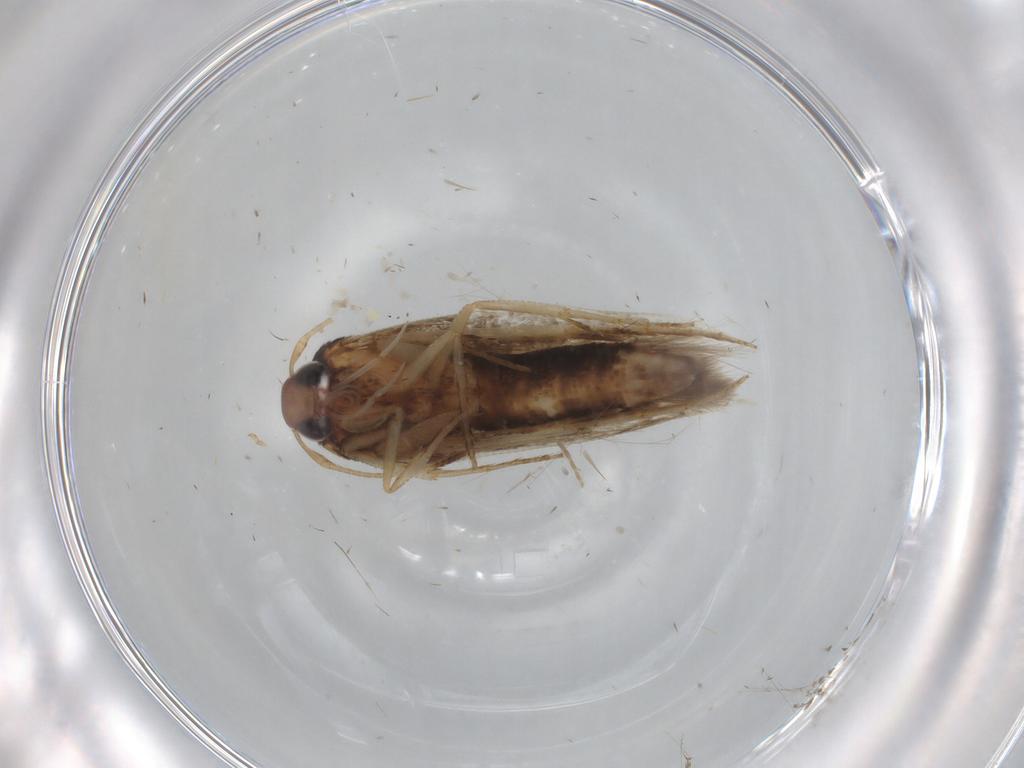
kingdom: Animalia
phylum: Arthropoda
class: Insecta
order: Lepidoptera
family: Cosmopterigidae
